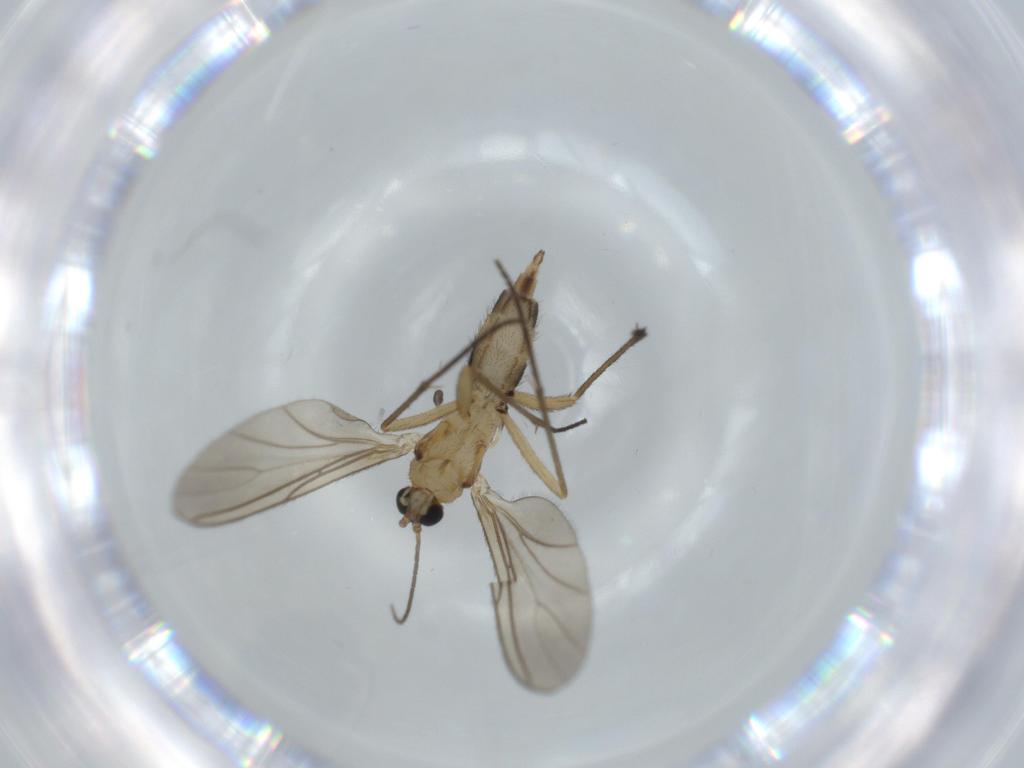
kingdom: Animalia
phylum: Arthropoda
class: Insecta
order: Diptera
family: Sciaridae
